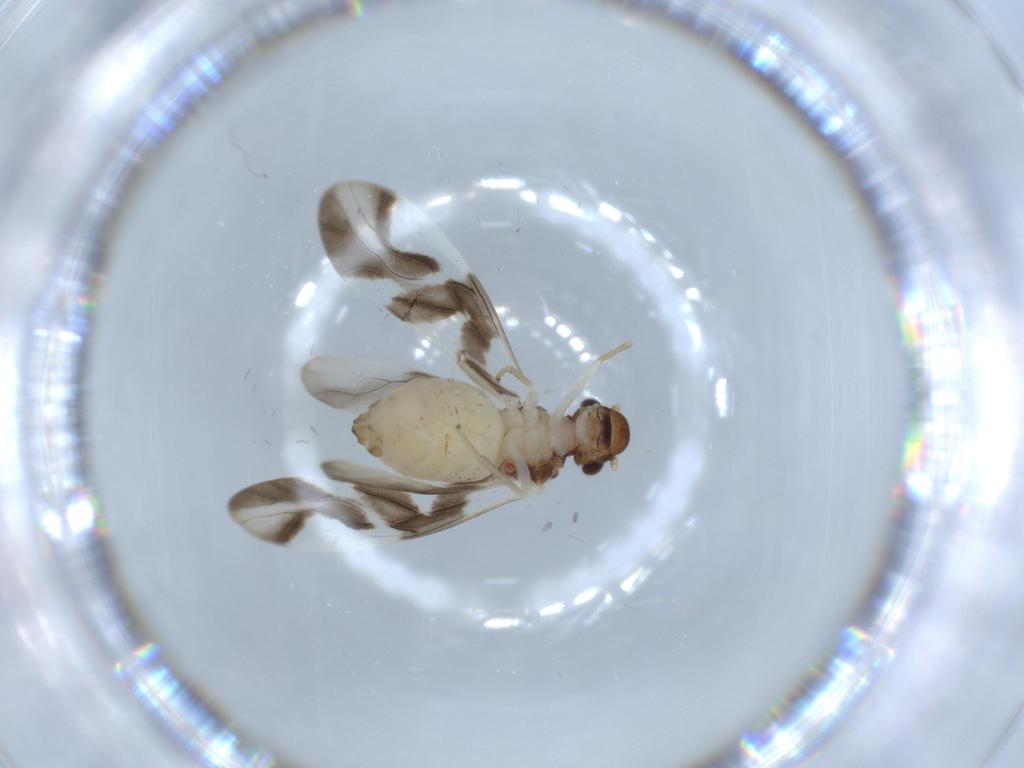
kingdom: Animalia
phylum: Arthropoda
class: Insecta
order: Psocodea
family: Caeciliusidae
